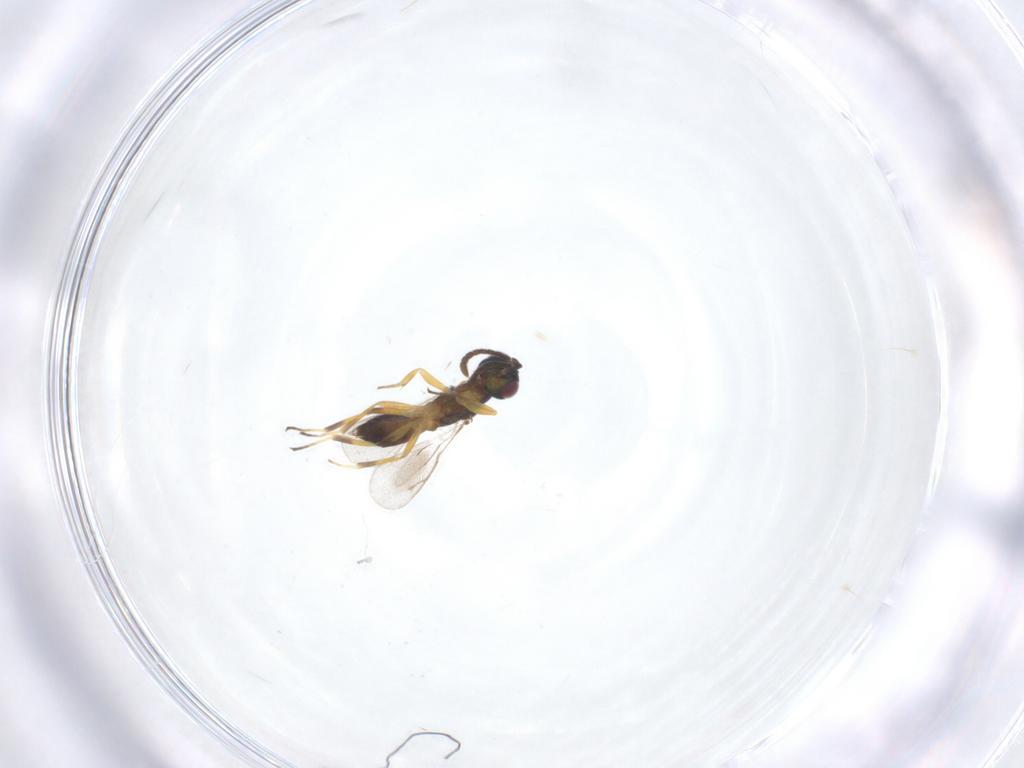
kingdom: Animalia
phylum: Arthropoda
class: Insecta
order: Hymenoptera
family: Eupelmidae
